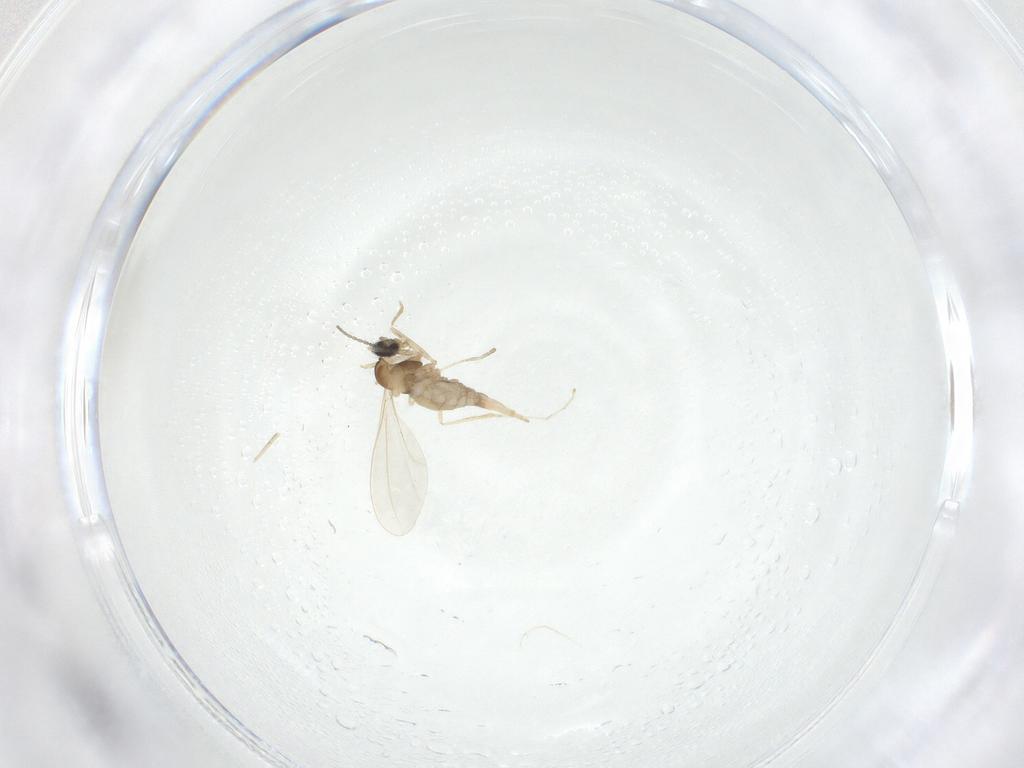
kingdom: Animalia
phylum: Arthropoda
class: Insecta
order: Diptera
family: Cecidomyiidae
